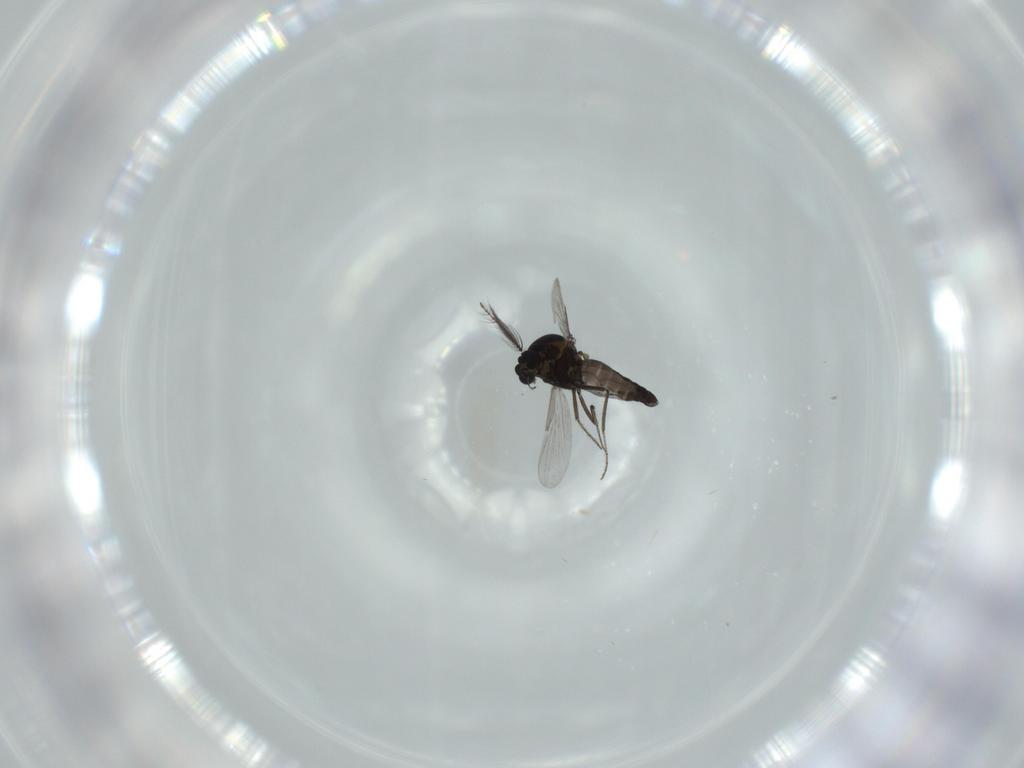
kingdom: Animalia
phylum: Arthropoda
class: Insecta
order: Diptera
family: Ceratopogonidae
